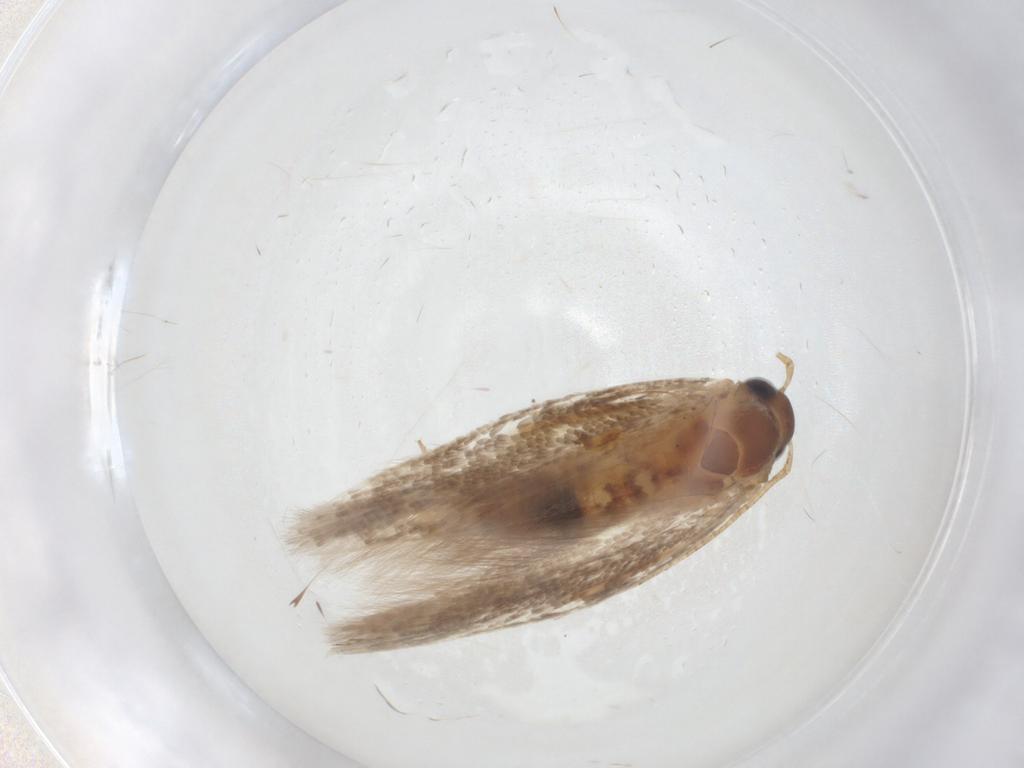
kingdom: Animalia
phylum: Arthropoda
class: Insecta
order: Lepidoptera
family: Gelechiidae
